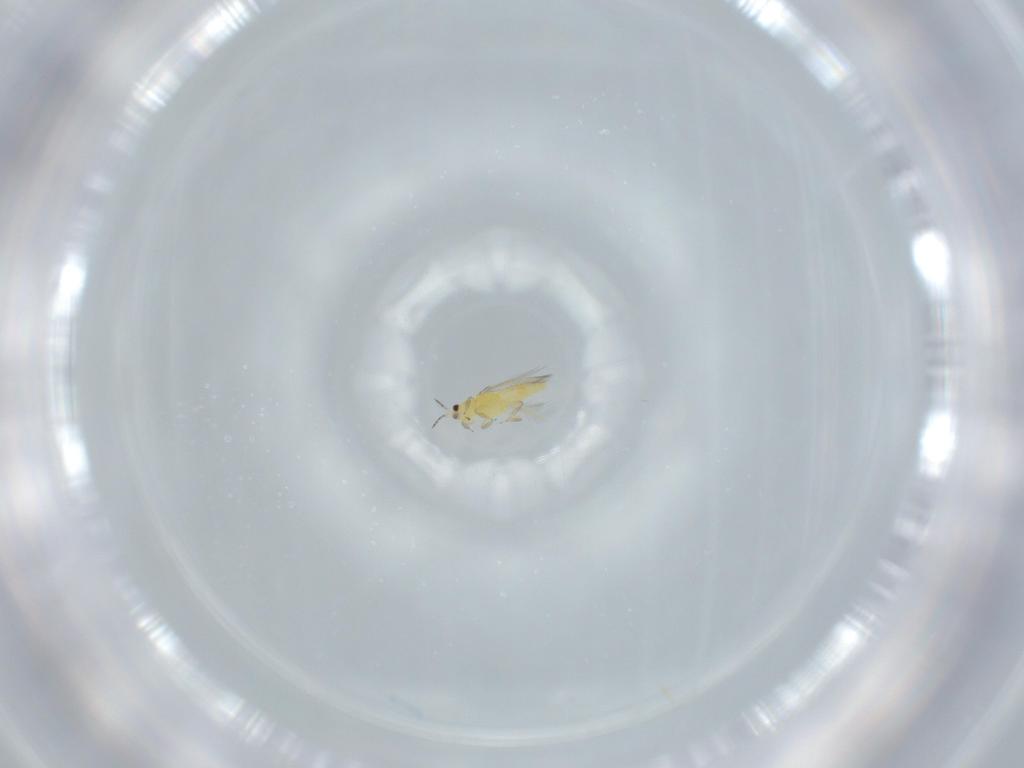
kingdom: Animalia
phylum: Arthropoda
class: Insecta
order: Thysanoptera
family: Thripidae
